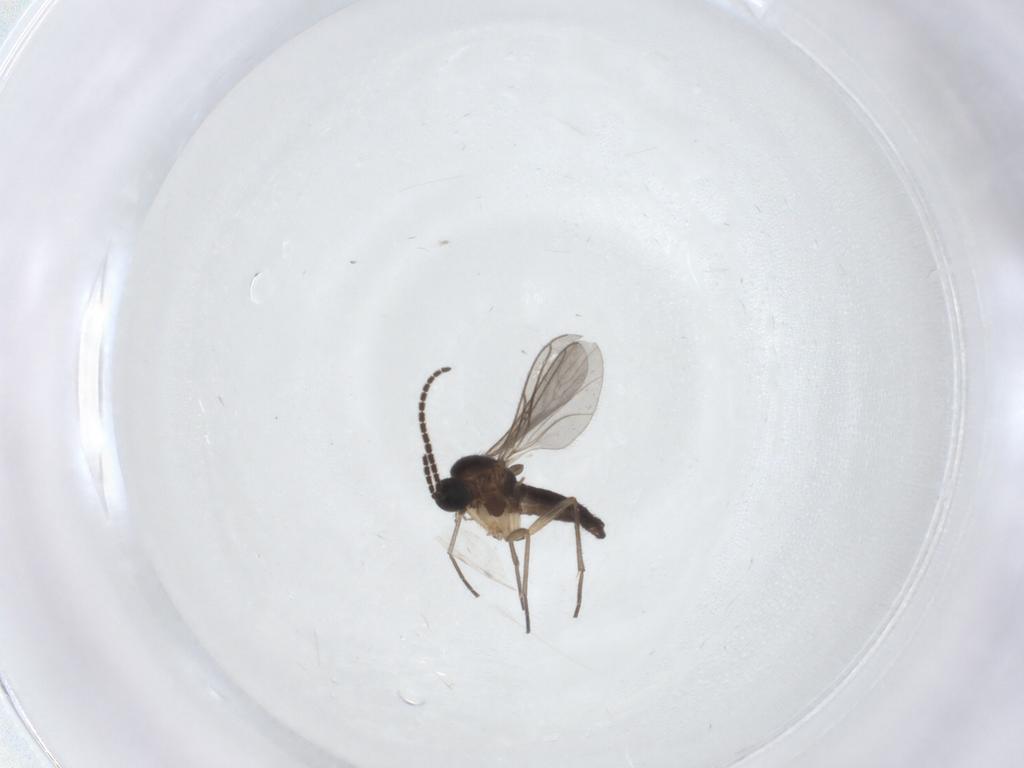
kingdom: Animalia
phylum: Arthropoda
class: Insecta
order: Diptera
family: Sciaridae
